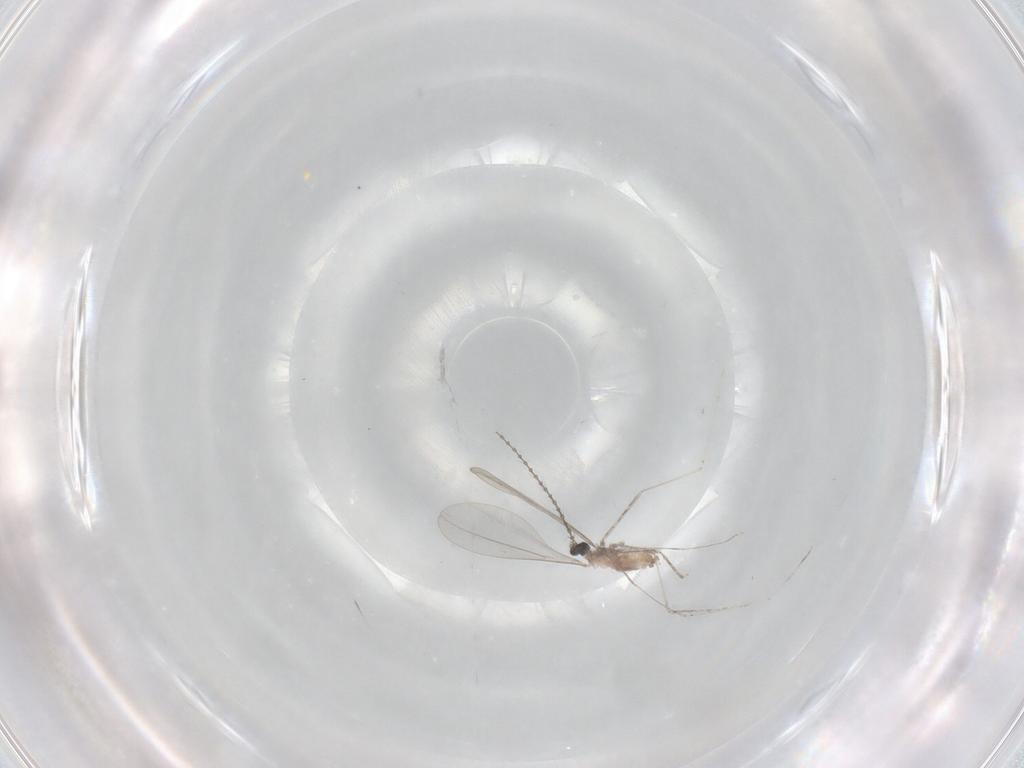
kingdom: Animalia
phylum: Arthropoda
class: Insecta
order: Diptera
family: Cecidomyiidae
